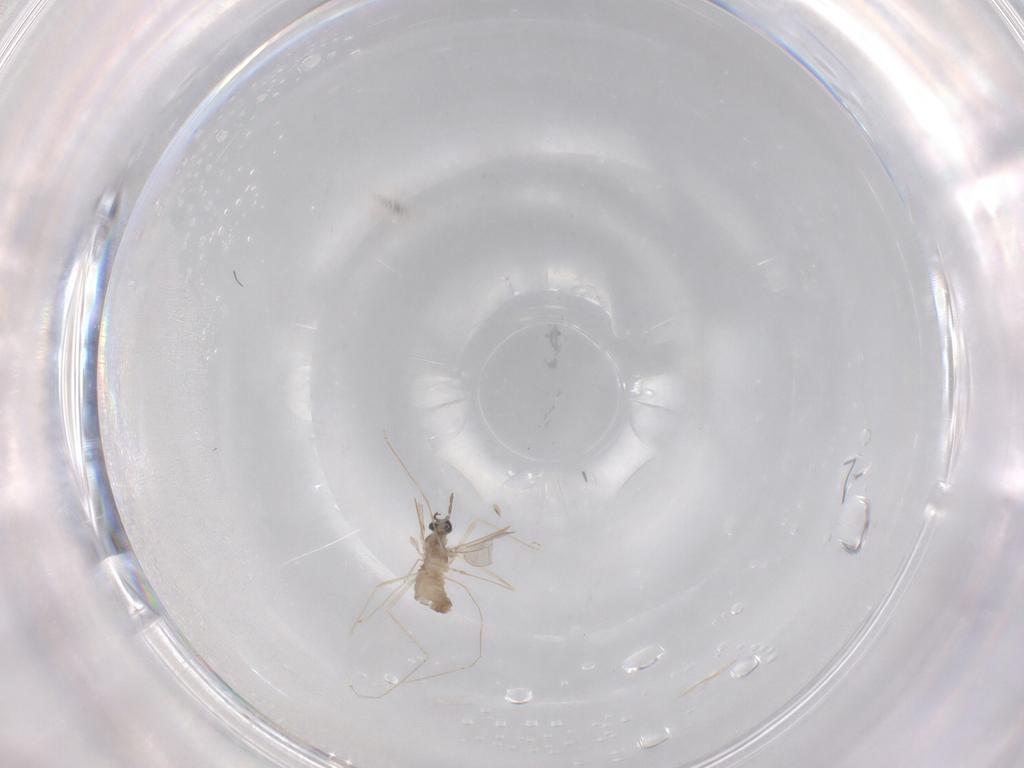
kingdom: Animalia
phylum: Arthropoda
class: Insecta
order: Diptera
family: Cecidomyiidae
